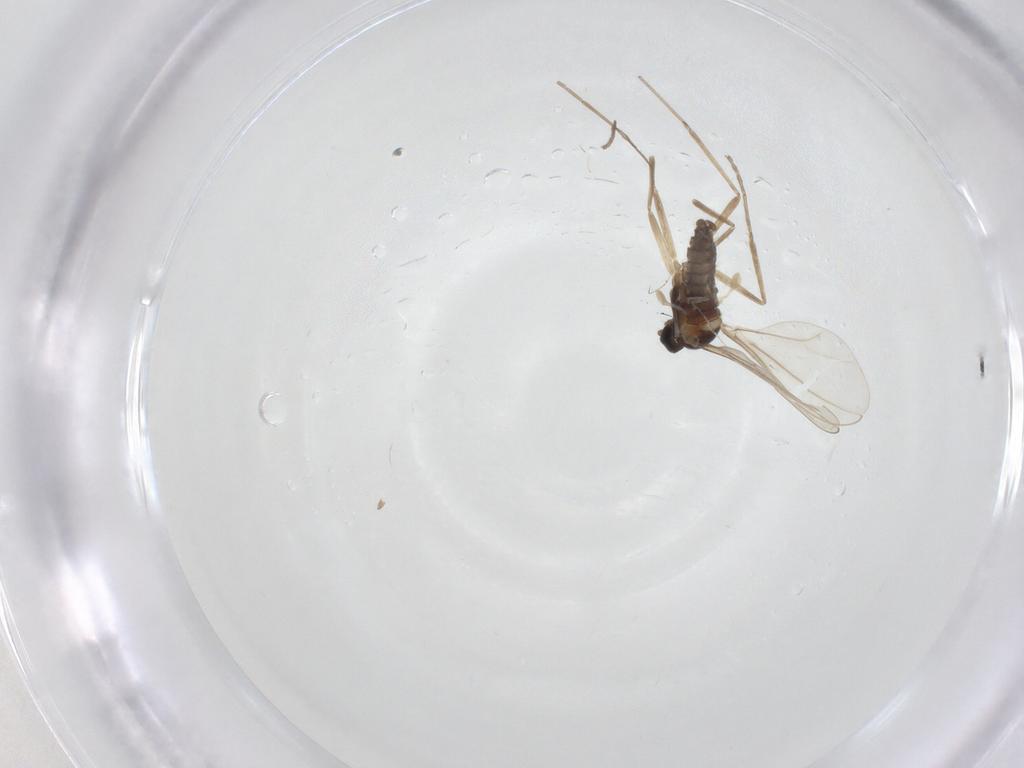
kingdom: Animalia
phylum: Arthropoda
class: Insecta
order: Diptera
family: Cecidomyiidae
